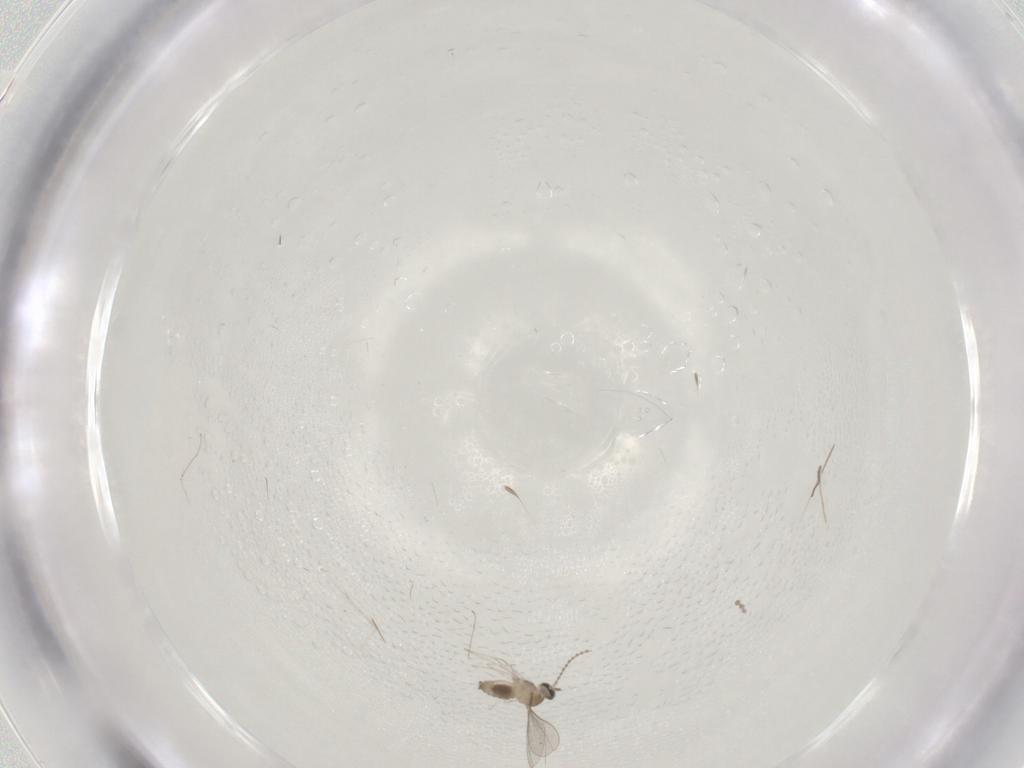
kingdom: Animalia
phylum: Arthropoda
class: Insecta
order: Diptera
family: Cecidomyiidae
